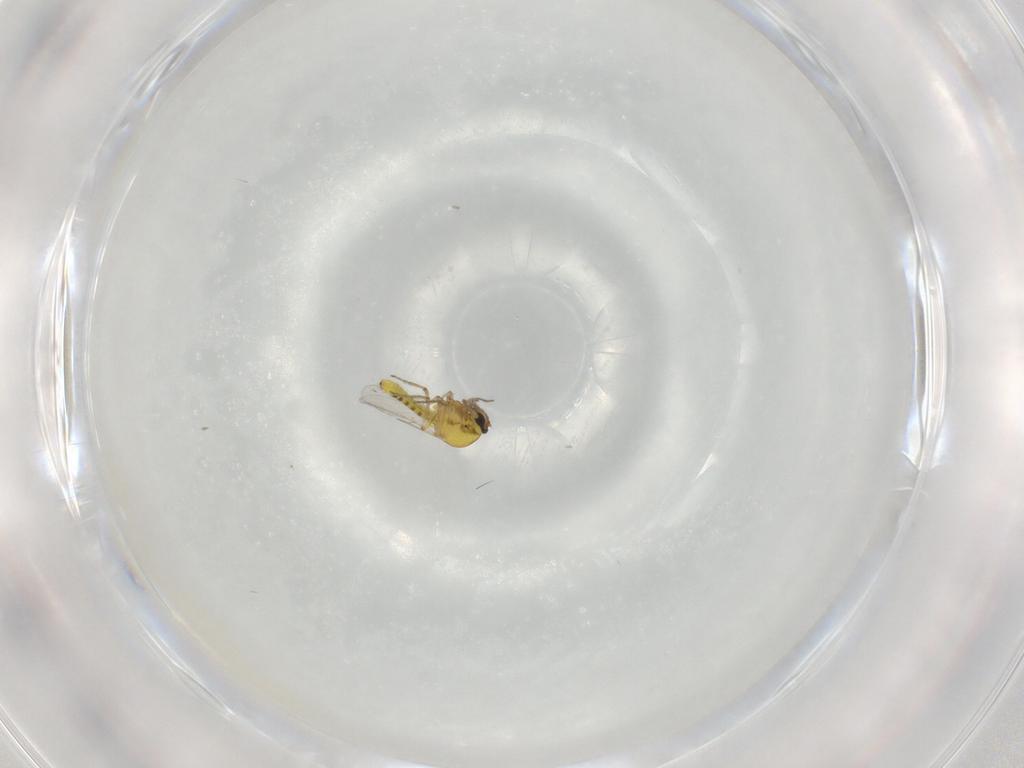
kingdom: Animalia
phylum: Arthropoda
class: Insecta
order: Diptera
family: Ceratopogonidae
